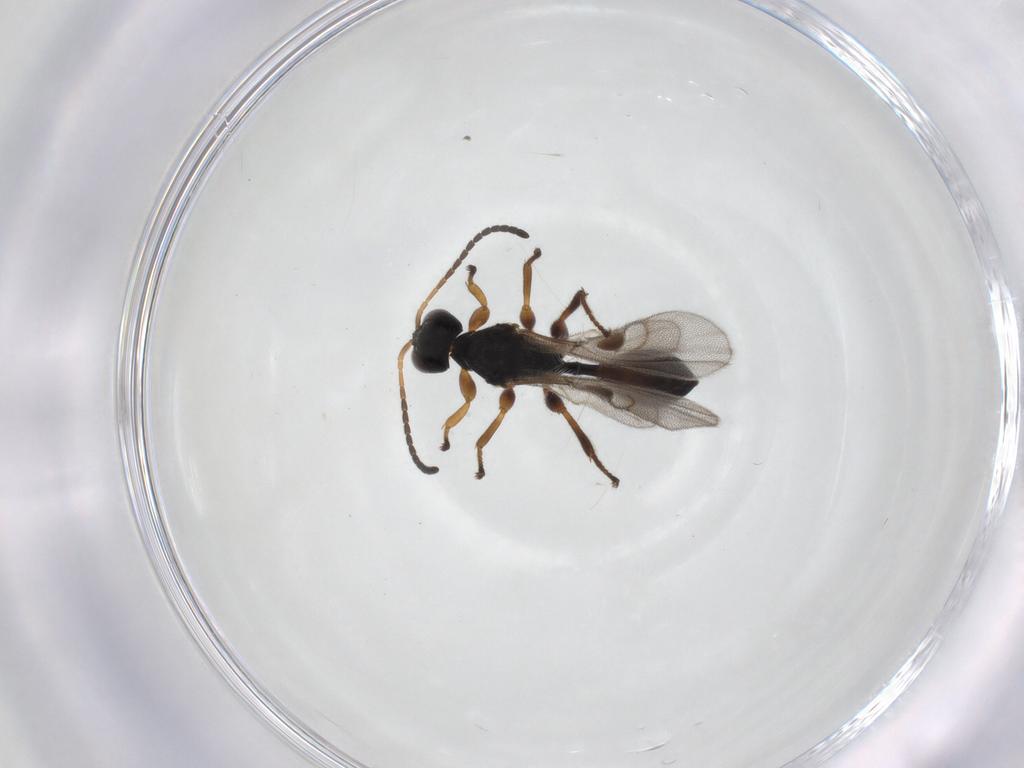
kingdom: Animalia
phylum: Arthropoda
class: Insecta
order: Hymenoptera
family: Braconidae
